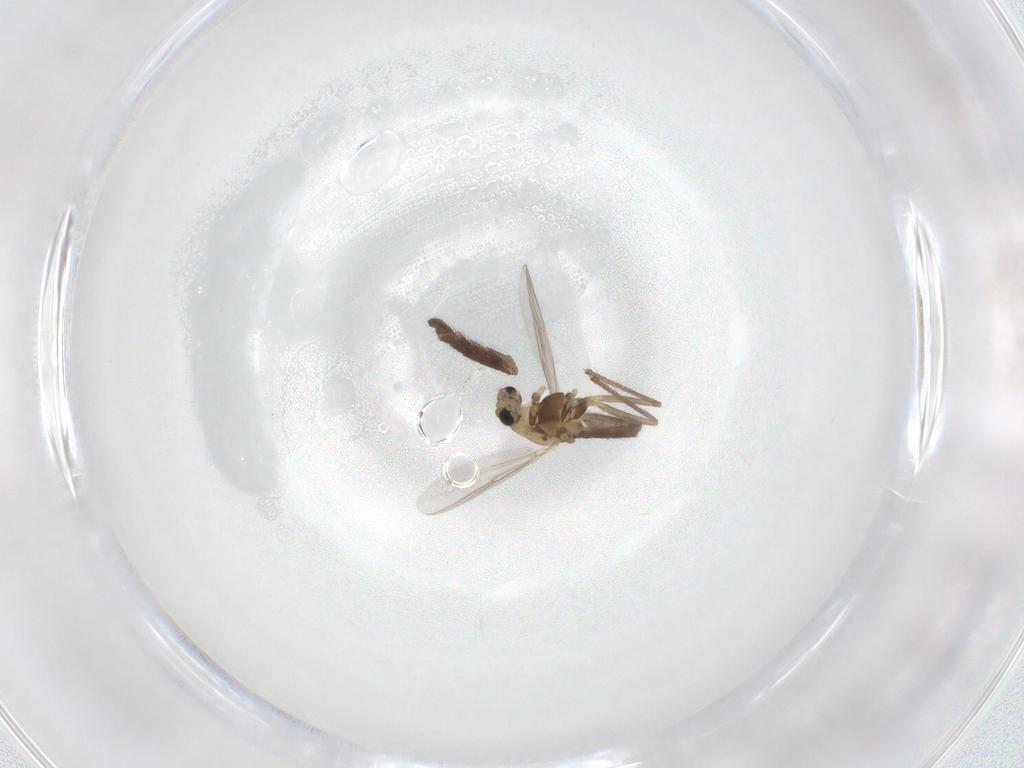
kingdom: Animalia
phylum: Arthropoda
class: Insecta
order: Diptera
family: Chironomidae
